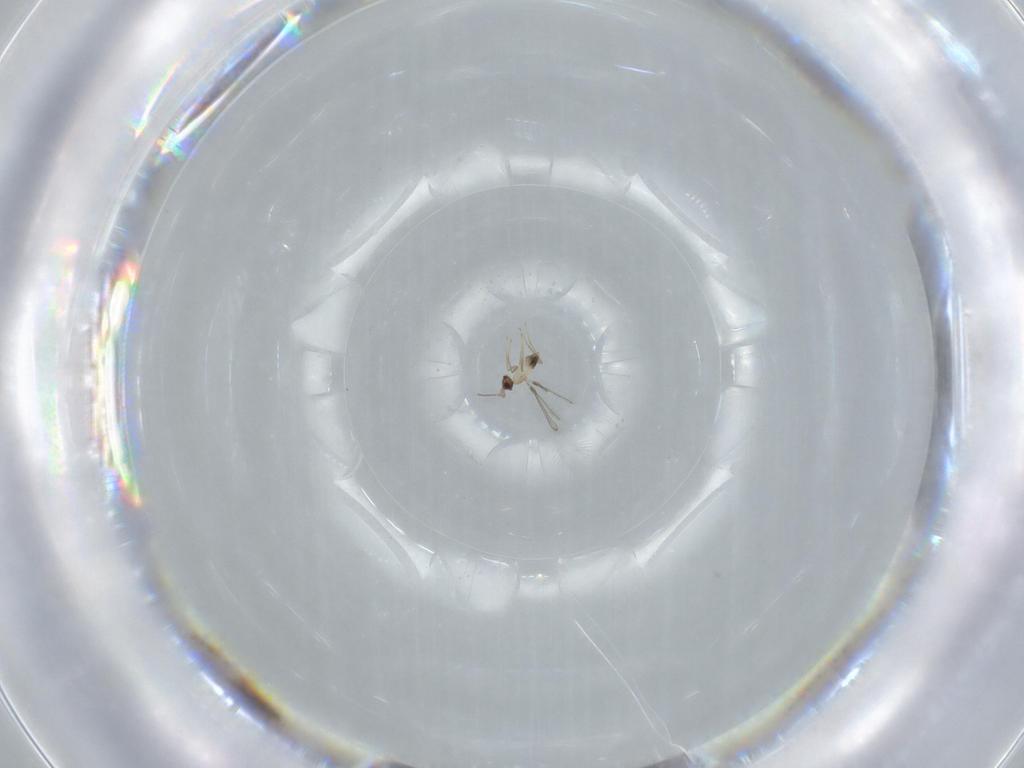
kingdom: Animalia
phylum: Arthropoda
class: Insecta
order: Hymenoptera
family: Mymaridae
